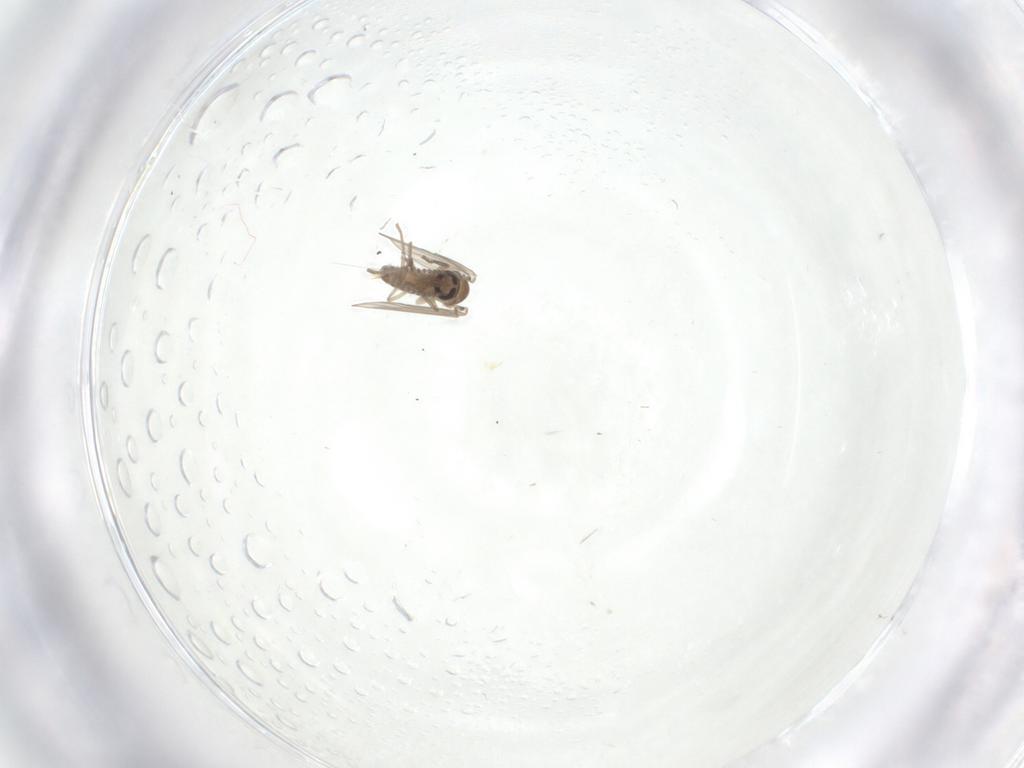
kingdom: Animalia
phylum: Arthropoda
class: Insecta
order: Diptera
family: Psychodidae
